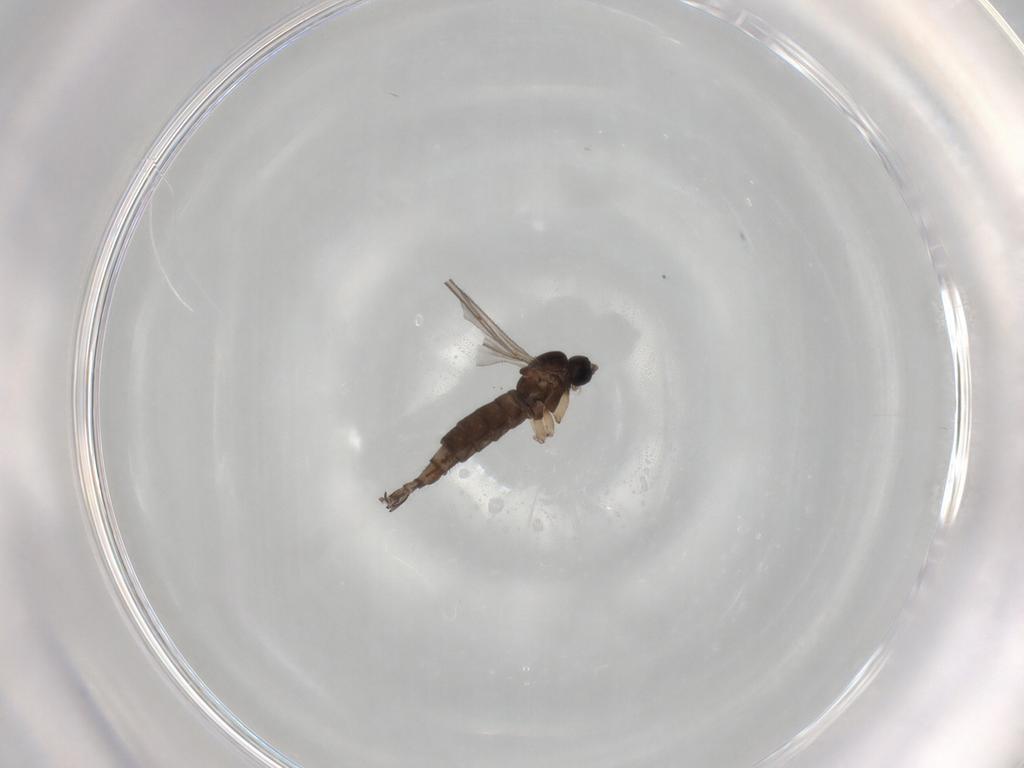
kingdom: Animalia
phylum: Arthropoda
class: Insecta
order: Diptera
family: Sciaridae
